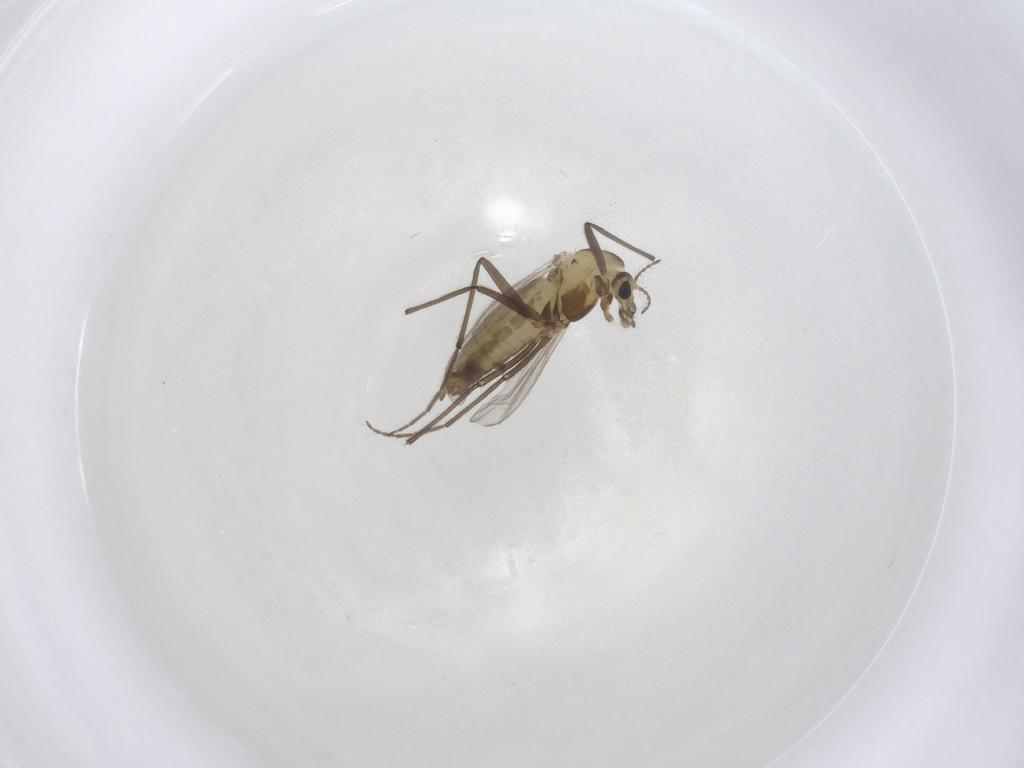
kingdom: Animalia
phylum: Arthropoda
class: Insecta
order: Diptera
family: Chironomidae
